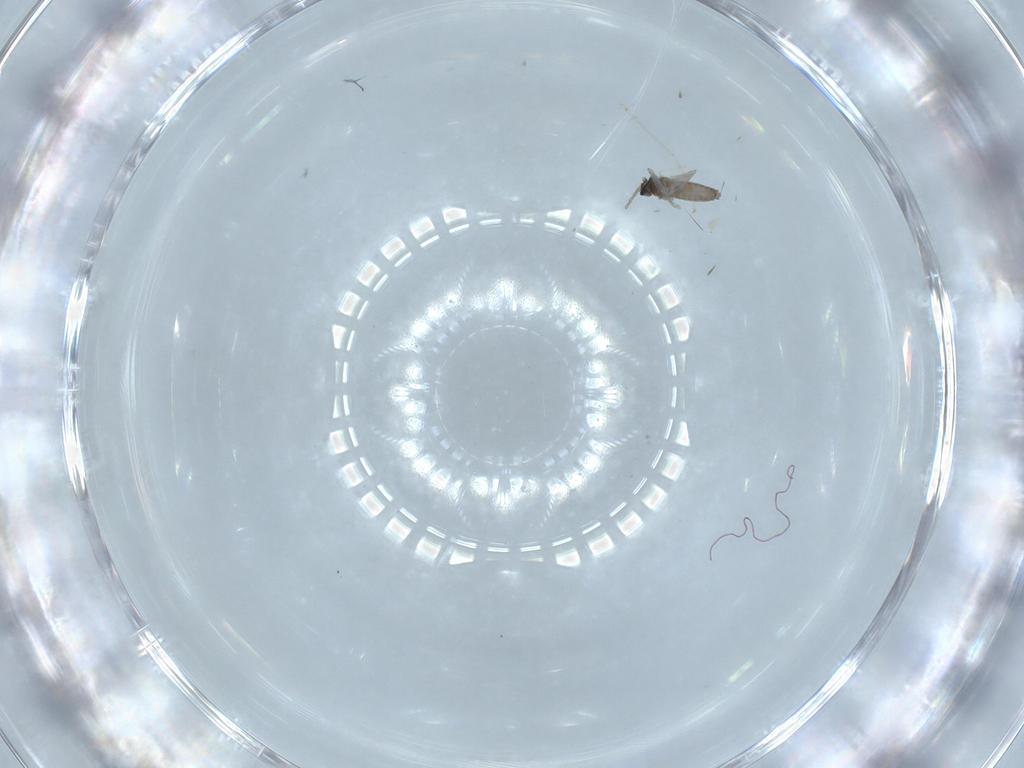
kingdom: Animalia
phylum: Arthropoda
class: Insecta
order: Diptera
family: Cecidomyiidae
